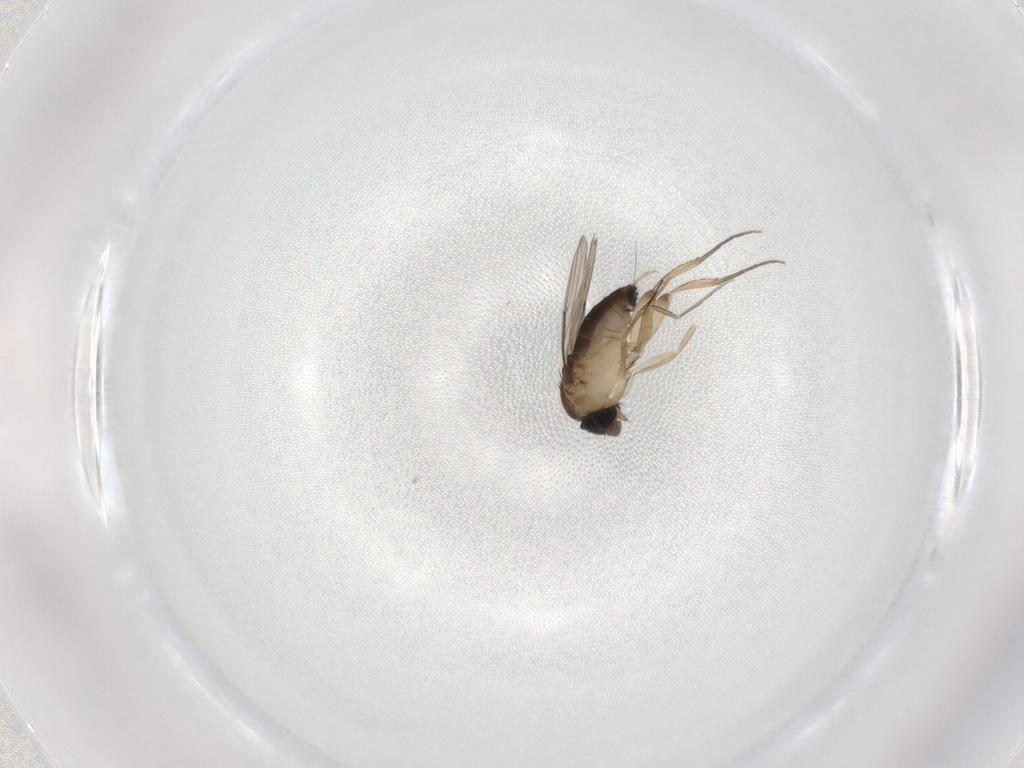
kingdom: Animalia
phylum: Arthropoda
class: Insecta
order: Diptera
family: Phoridae
